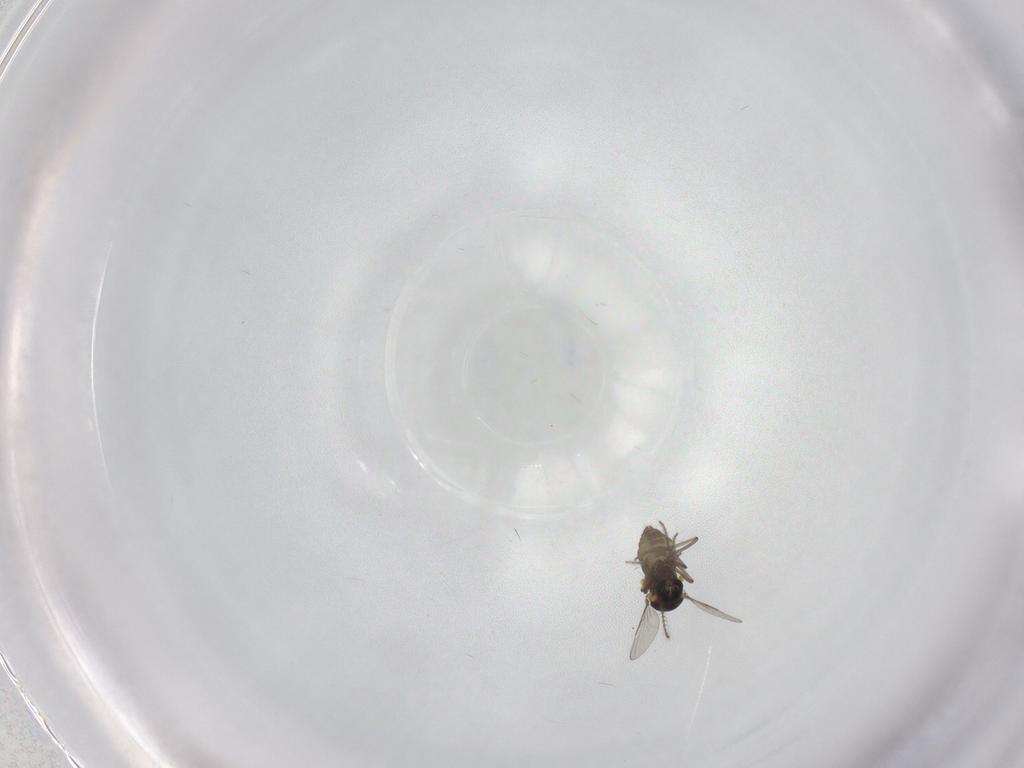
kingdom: Animalia
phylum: Arthropoda
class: Insecta
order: Diptera
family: Ceratopogonidae
